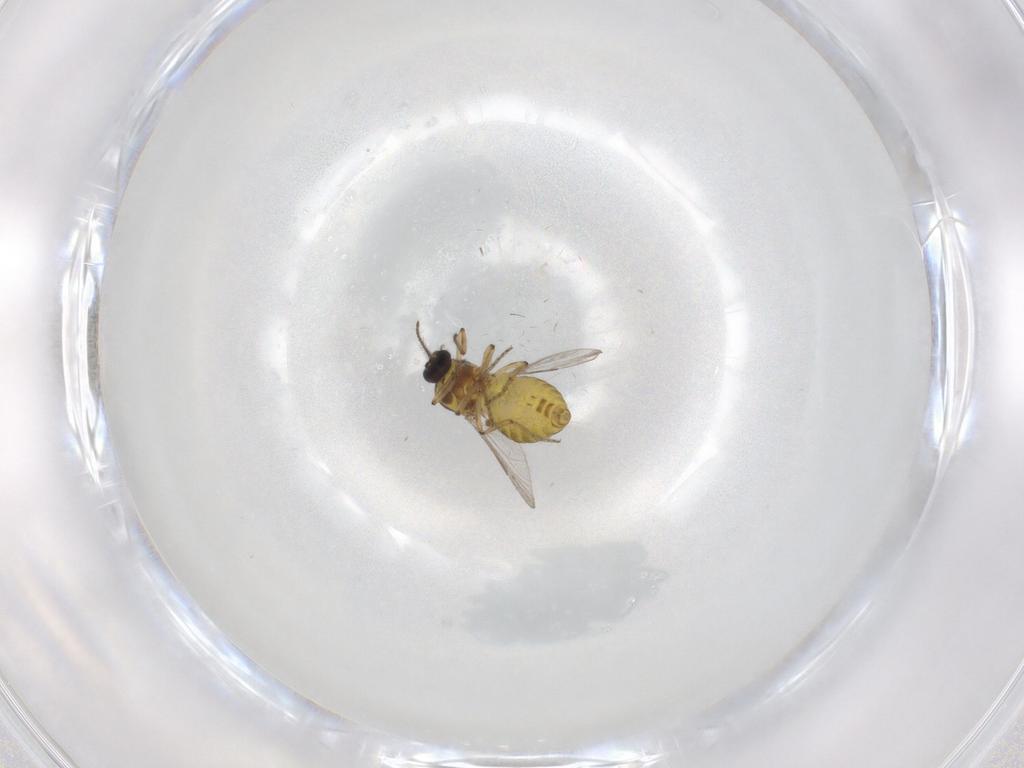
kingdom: Animalia
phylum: Arthropoda
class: Insecta
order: Diptera
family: Ceratopogonidae
